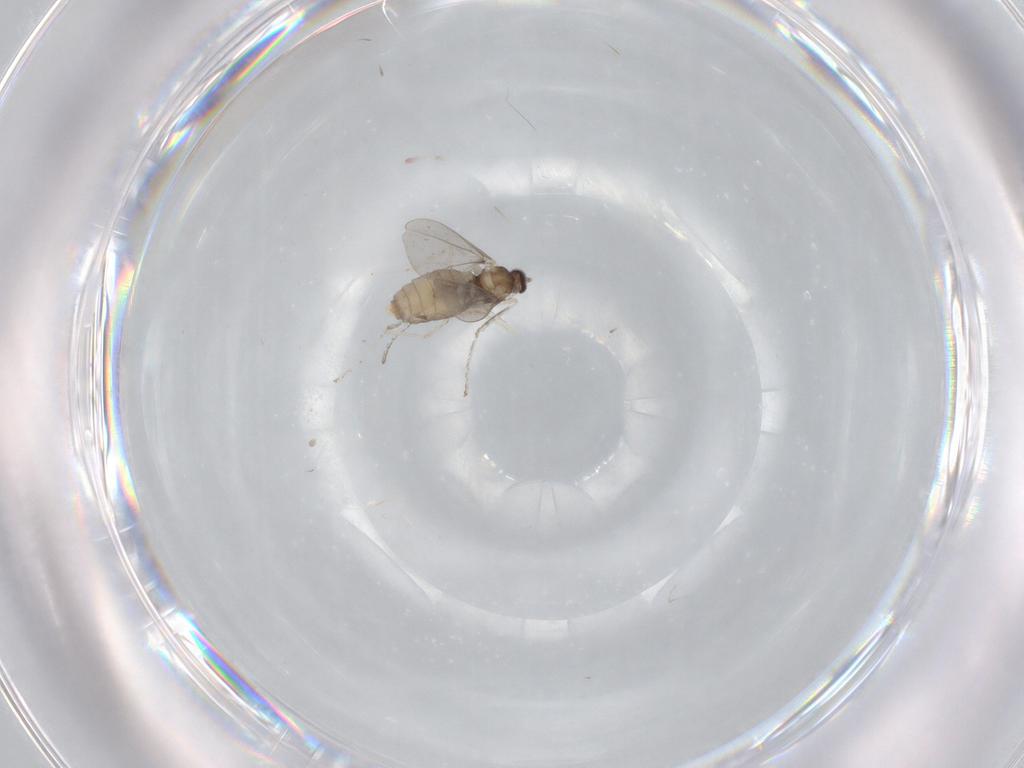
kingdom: Animalia
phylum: Arthropoda
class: Insecta
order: Diptera
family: Cecidomyiidae
